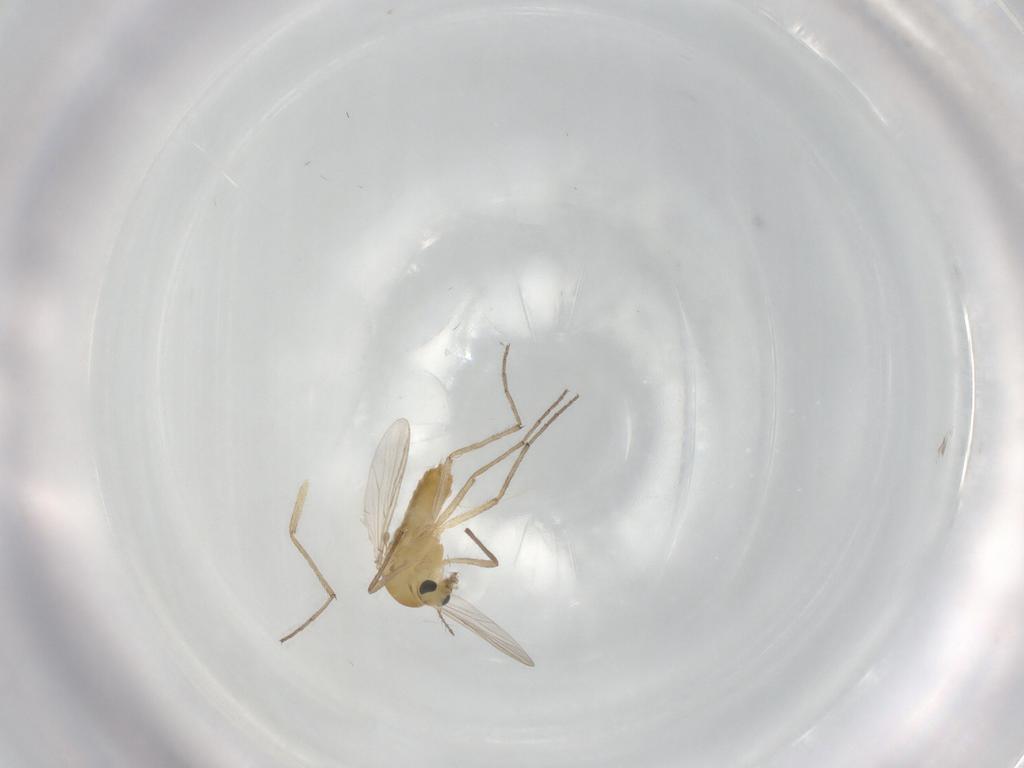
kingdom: Animalia
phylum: Arthropoda
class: Insecta
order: Diptera
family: Chironomidae
